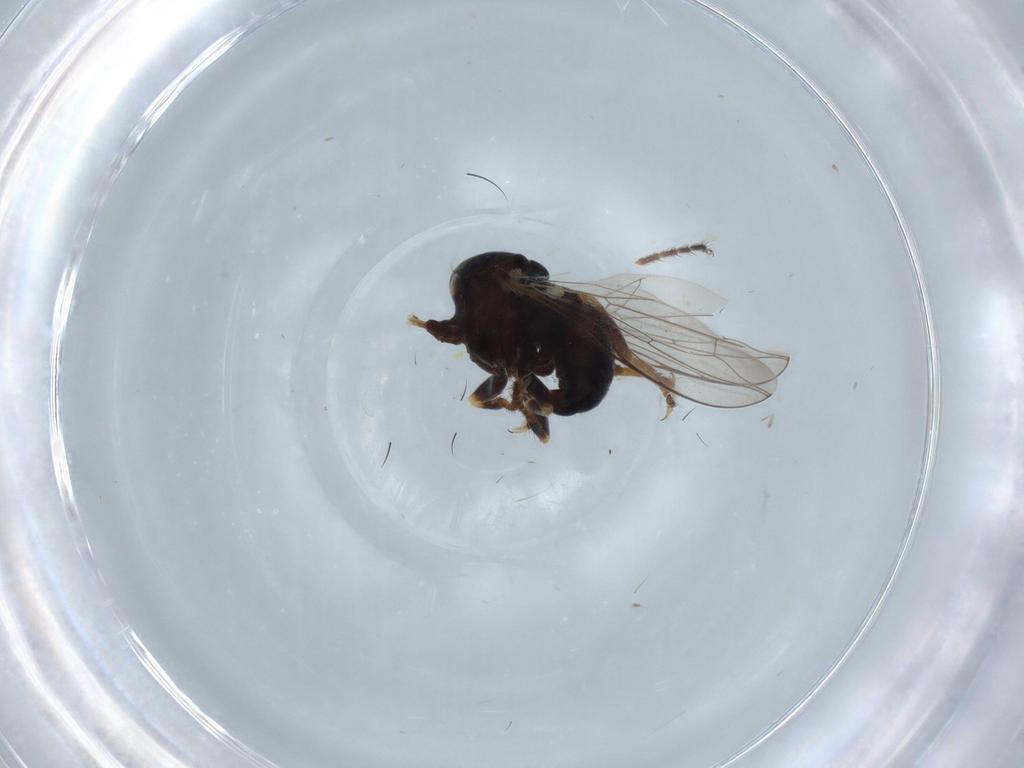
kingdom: Animalia
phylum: Arthropoda
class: Insecta
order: Diptera
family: Hybotidae
